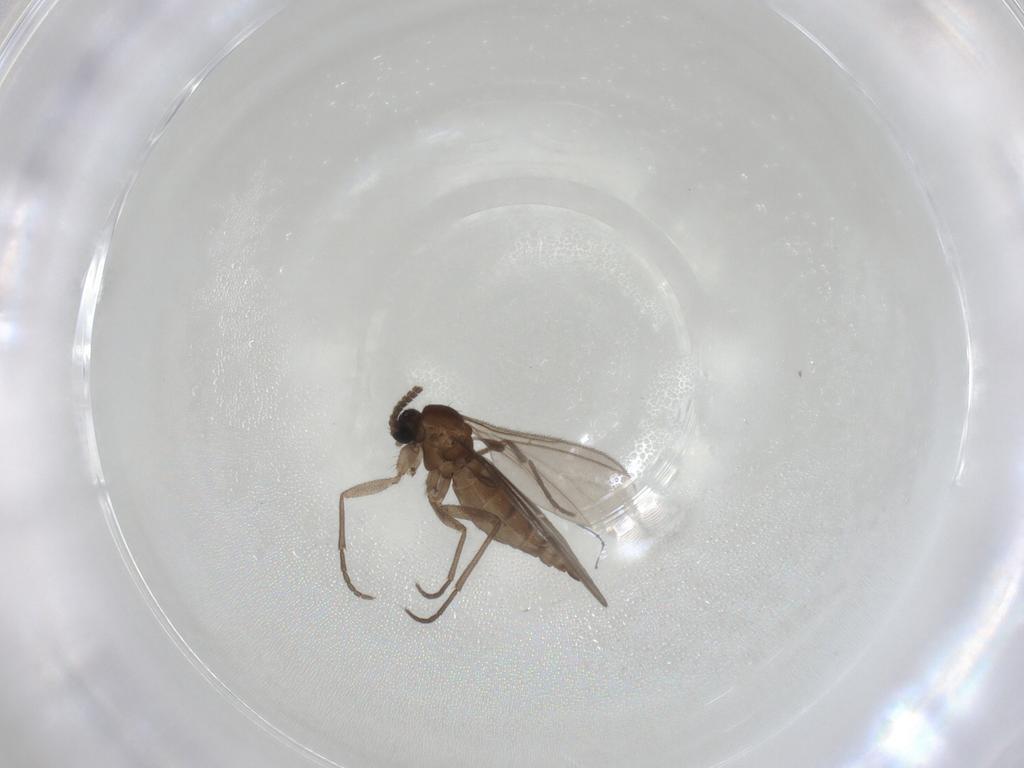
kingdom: Animalia
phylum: Arthropoda
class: Insecta
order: Diptera
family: Sciaridae
